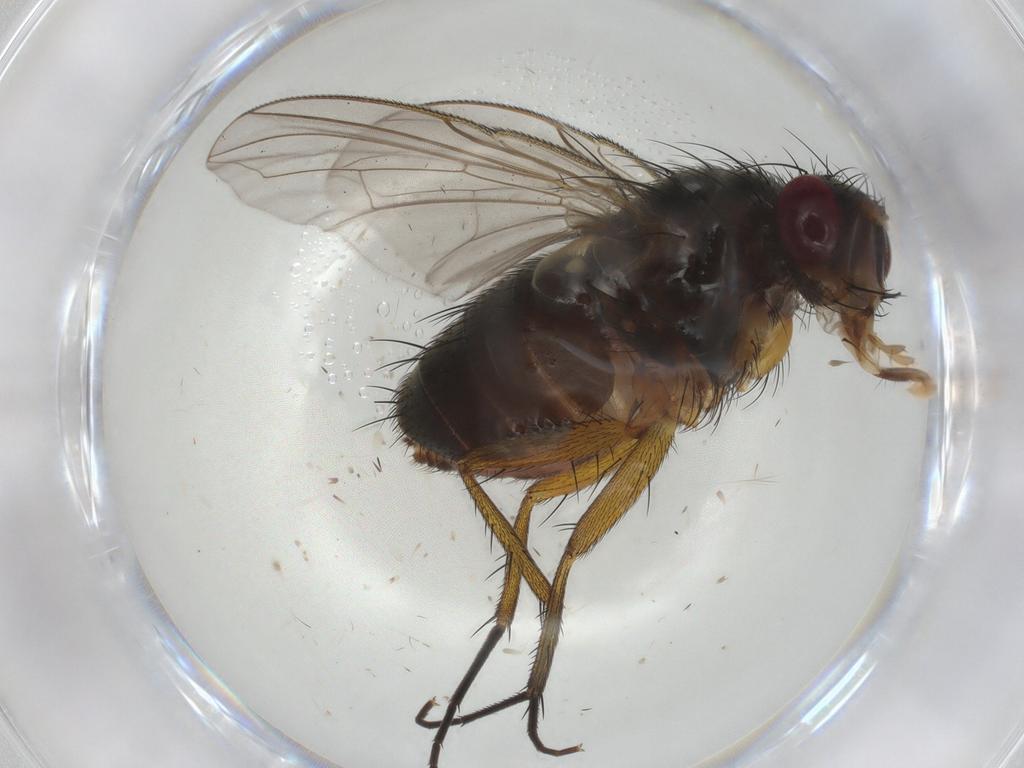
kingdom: Animalia
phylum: Arthropoda
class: Insecta
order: Diptera
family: Anthomyiidae
